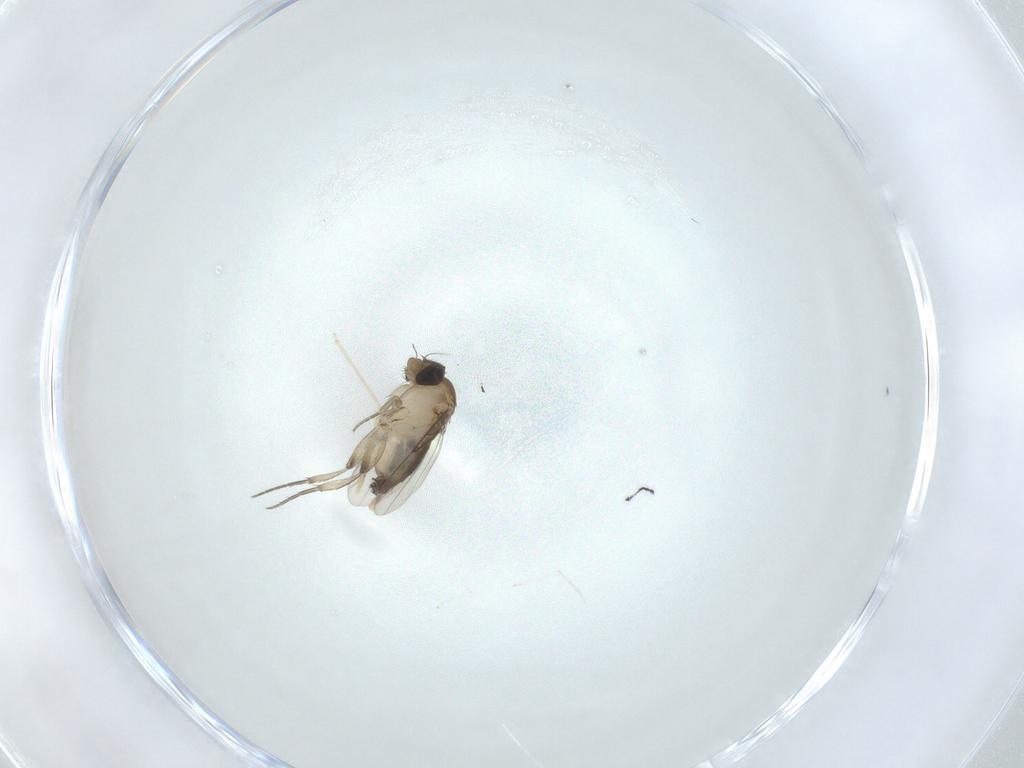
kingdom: Animalia
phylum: Arthropoda
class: Insecta
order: Diptera
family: Phoridae
